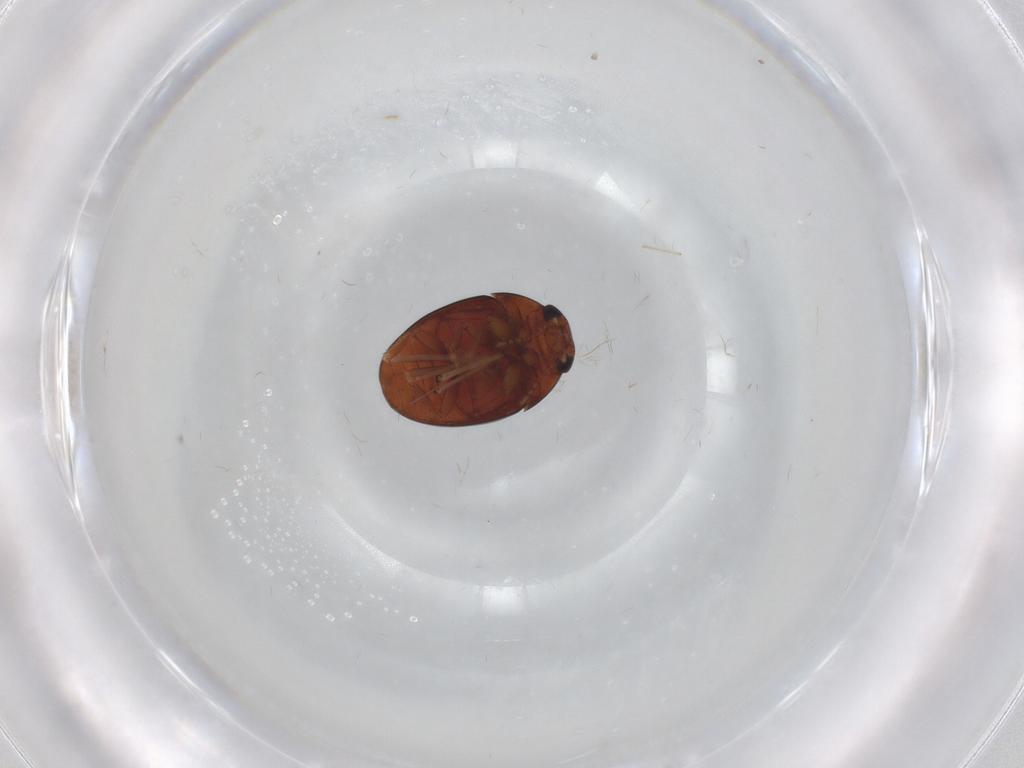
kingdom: Animalia
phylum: Arthropoda
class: Insecta
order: Coleoptera
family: Phalacridae
